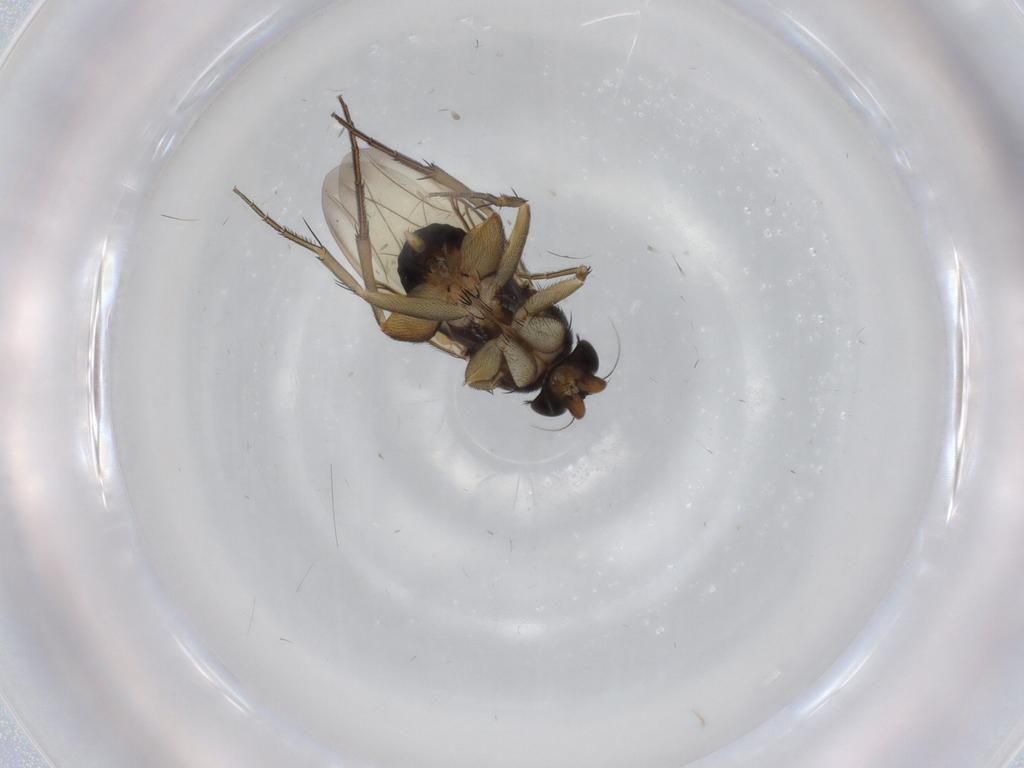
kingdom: Animalia
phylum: Arthropoda
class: Insecta
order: Diptera
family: Phoridae
